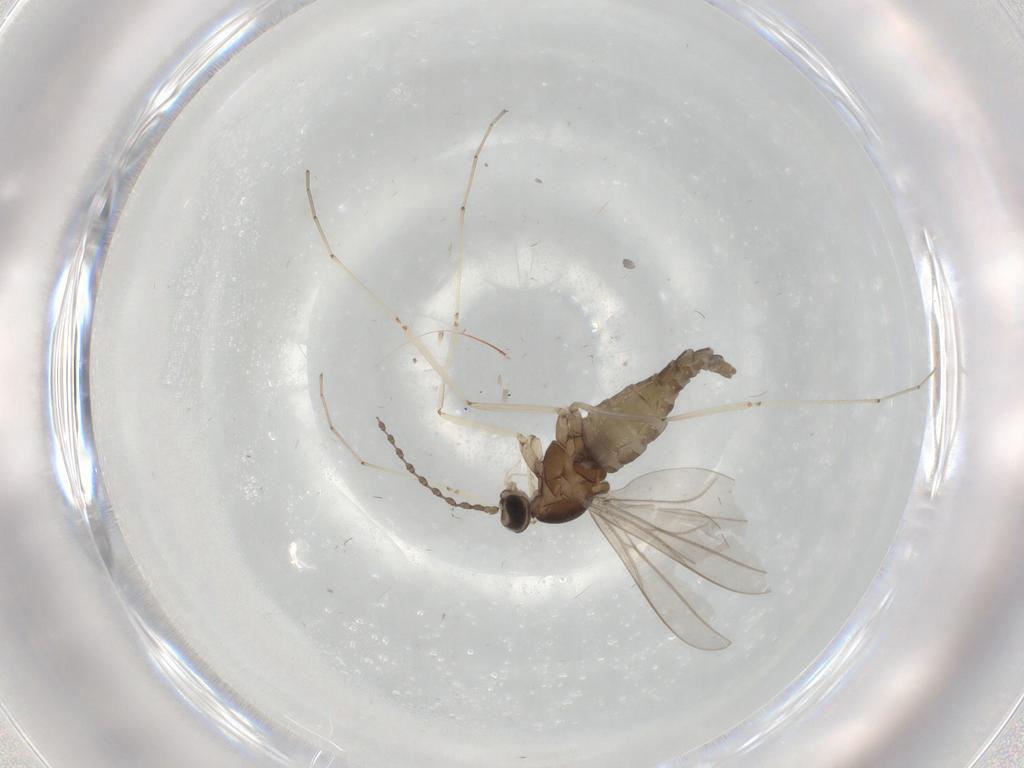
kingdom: Animalia
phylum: Arthropoda
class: Insecta
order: Diptera
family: Cecidomyiidae
